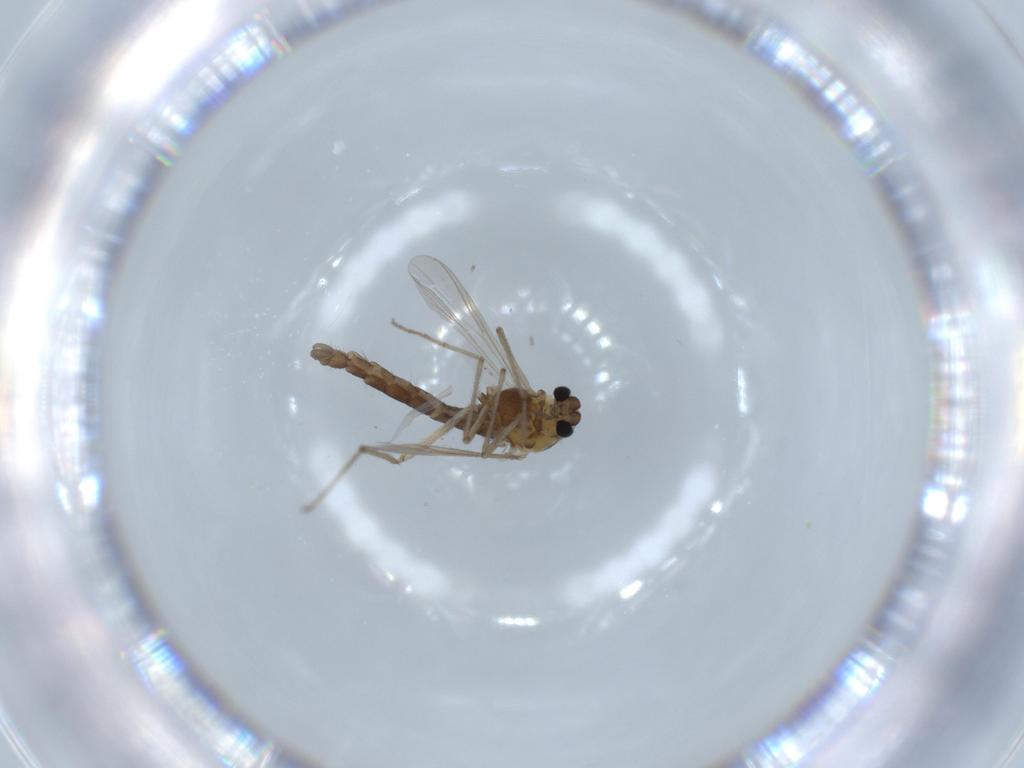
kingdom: Animalia
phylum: Arthropoda
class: Insecta
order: Diptera
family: Chironomidae
